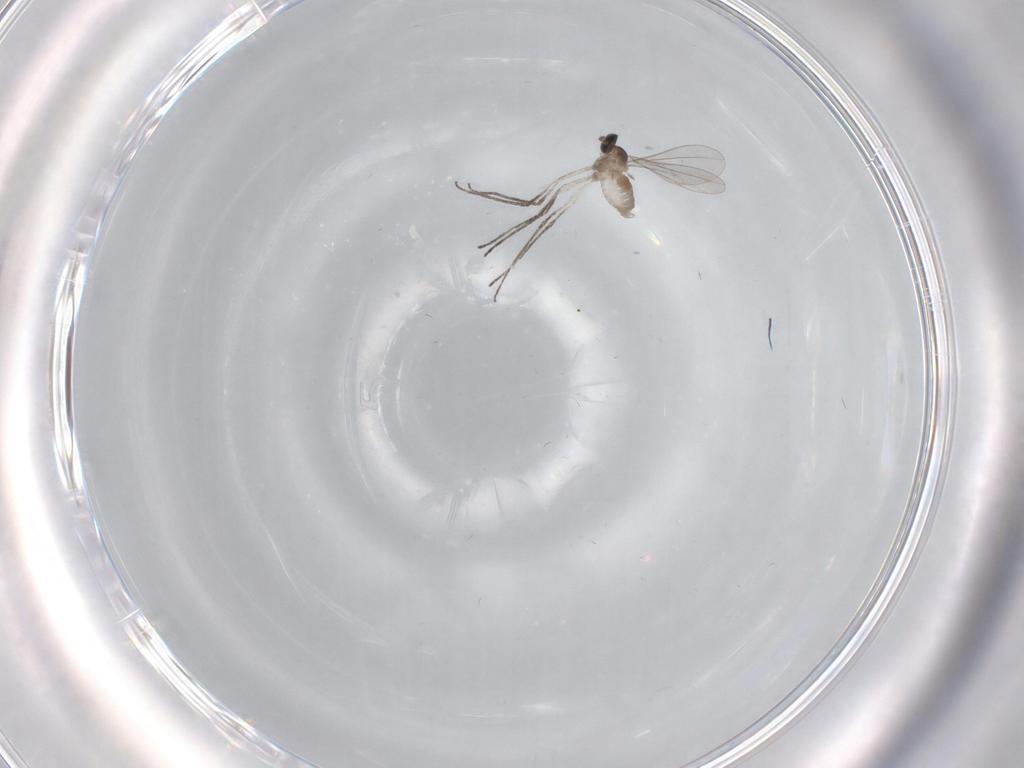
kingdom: Animalia
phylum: Arthropoda
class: Insecta
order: Diptera
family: Cecidomyiidae
